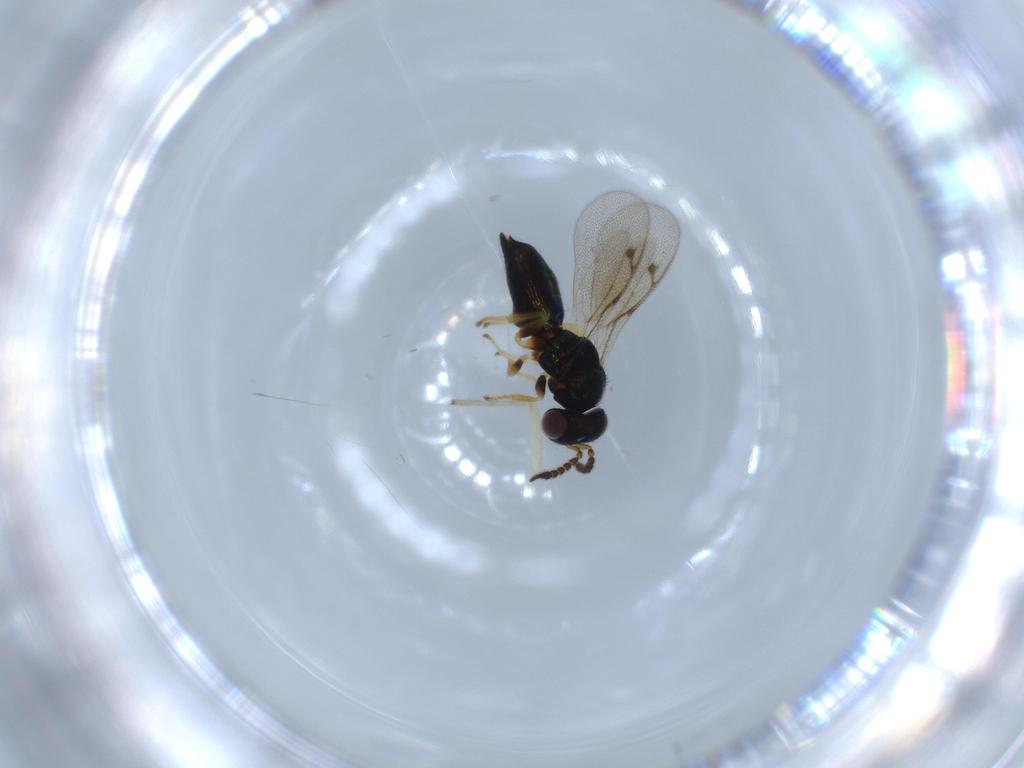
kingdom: Animalia
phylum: Arthropoda
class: Insecta
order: Hymenoptera
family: Pirenidae
